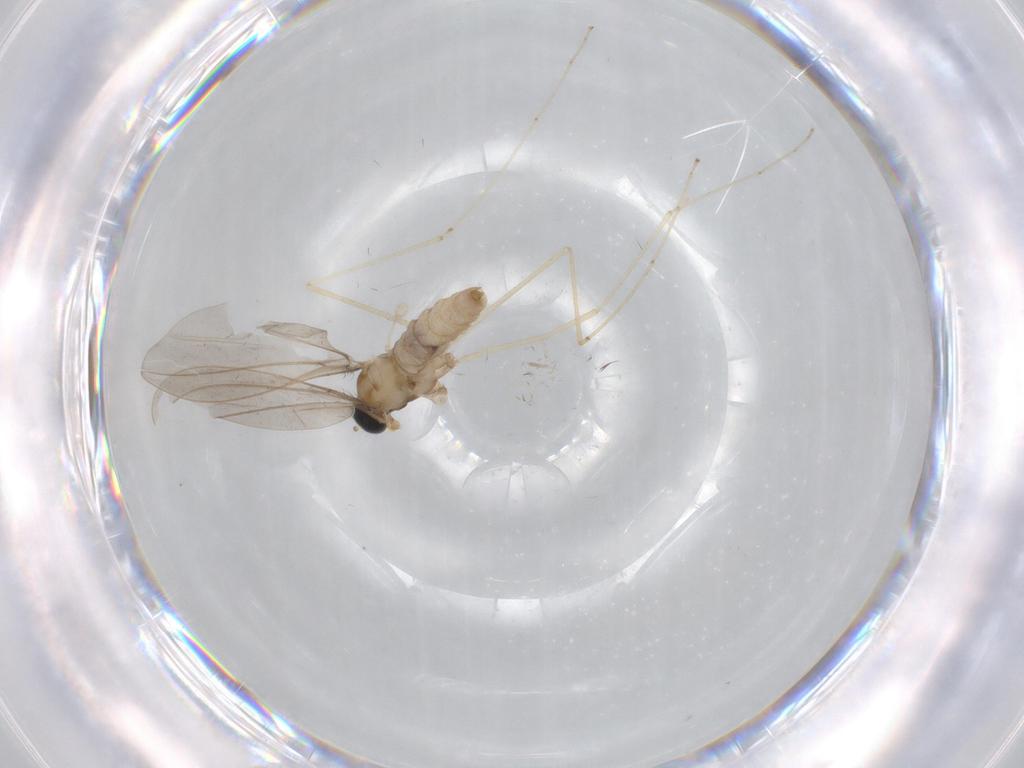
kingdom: Animalia
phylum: Arthropoda
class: Insecta
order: Diptera
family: Cecidomyiidae
